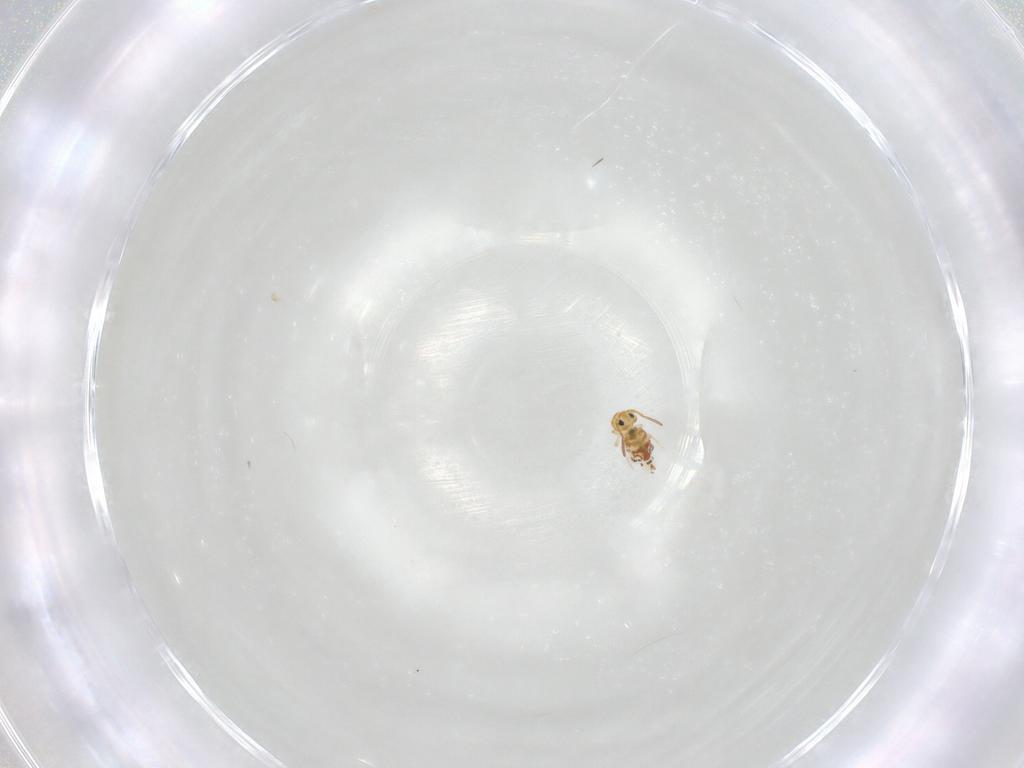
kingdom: Animalia
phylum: Arthropoda
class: Collembola
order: Symphypleona
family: Bourletiellidae
